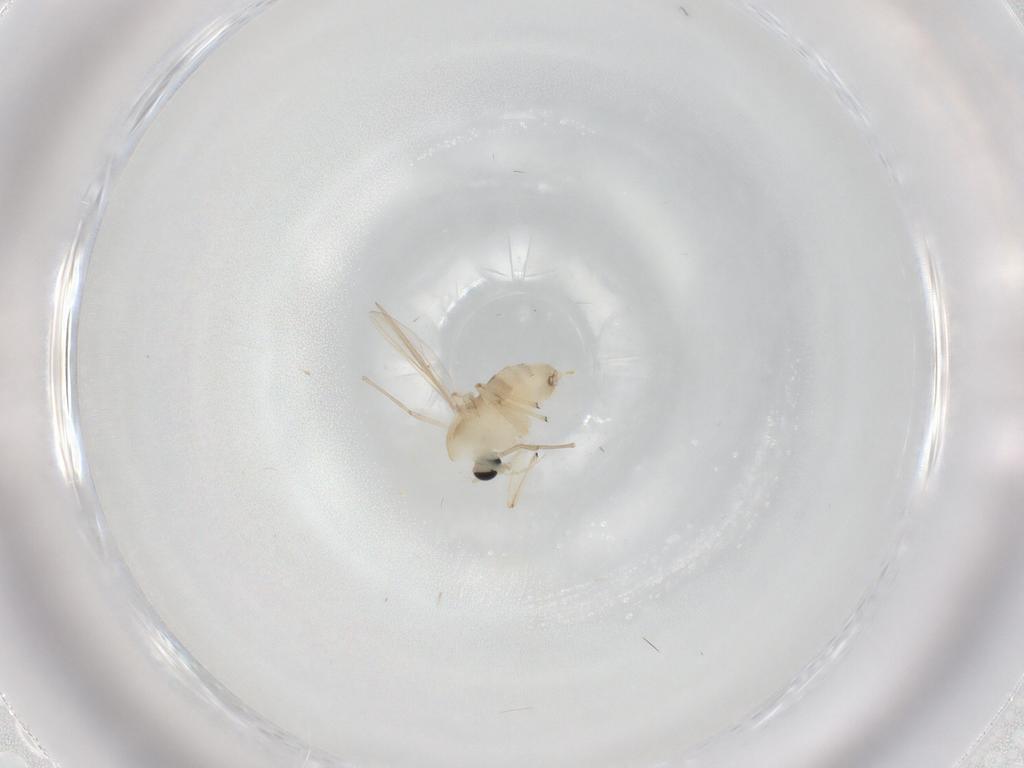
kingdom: Animalia
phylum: Arthropoda
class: Insecta
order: Diptera
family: Chironomidae
